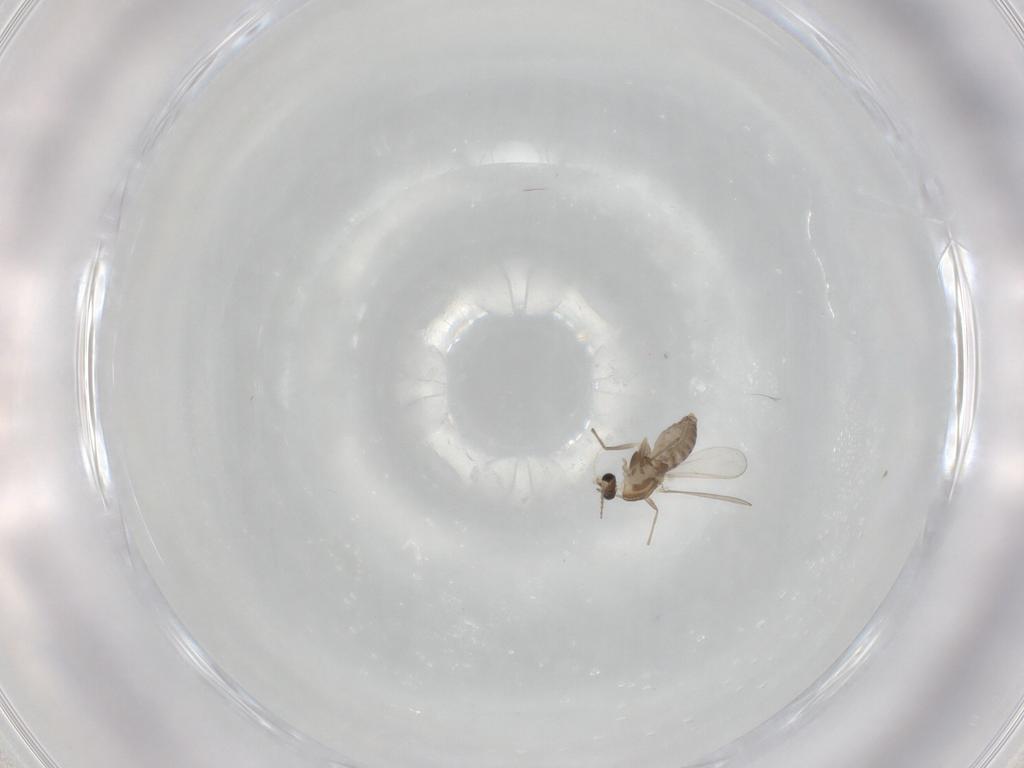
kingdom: Animalia
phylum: Arthropoda
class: Insecta
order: Diptera
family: Chironomidae
